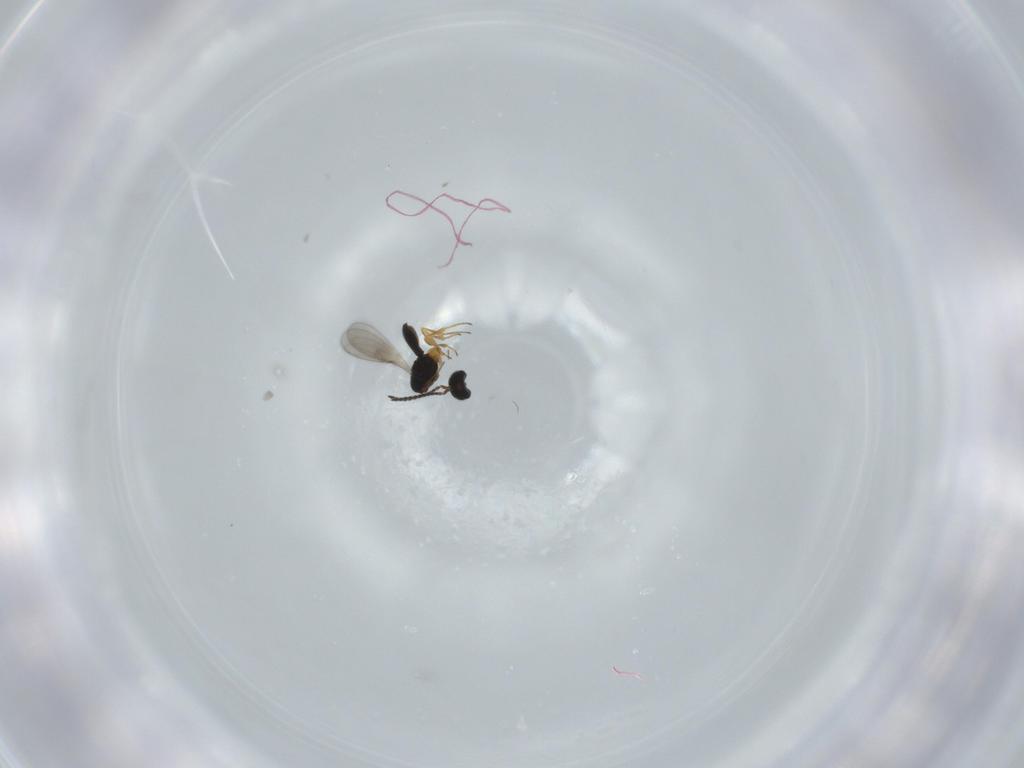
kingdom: Animalia
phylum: Arthropoda
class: Insecta
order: Hymenoptera
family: Scelionidae
